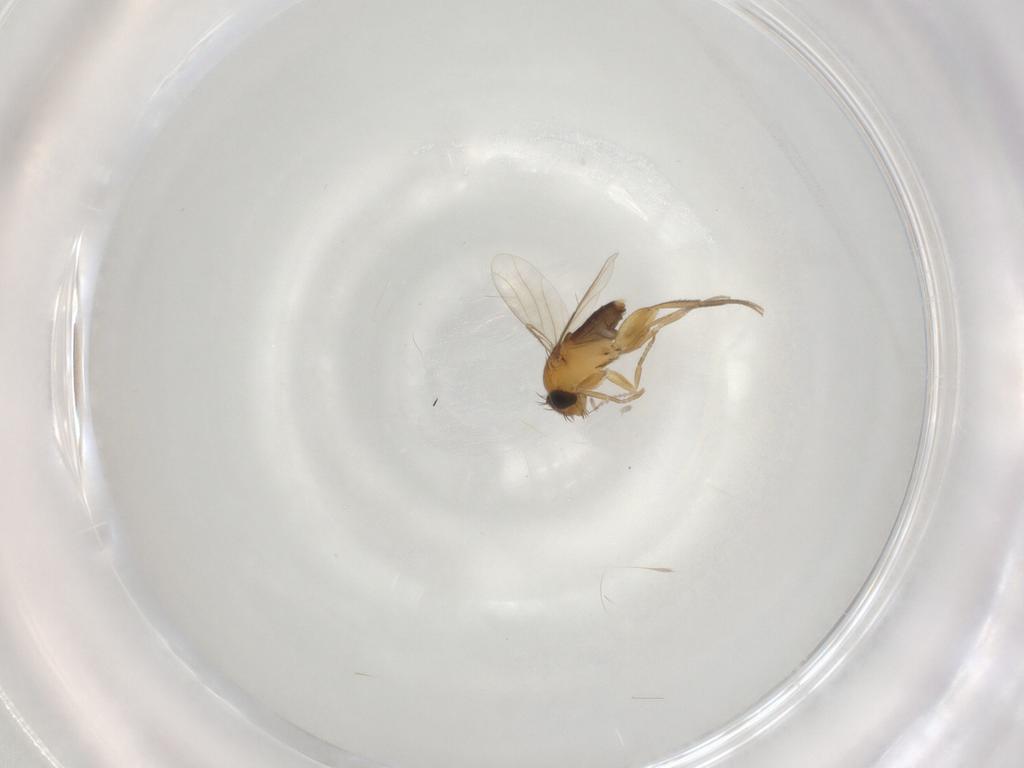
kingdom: Animalia
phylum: Arthropoda
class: Insecta
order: Diptera
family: Phoridae
